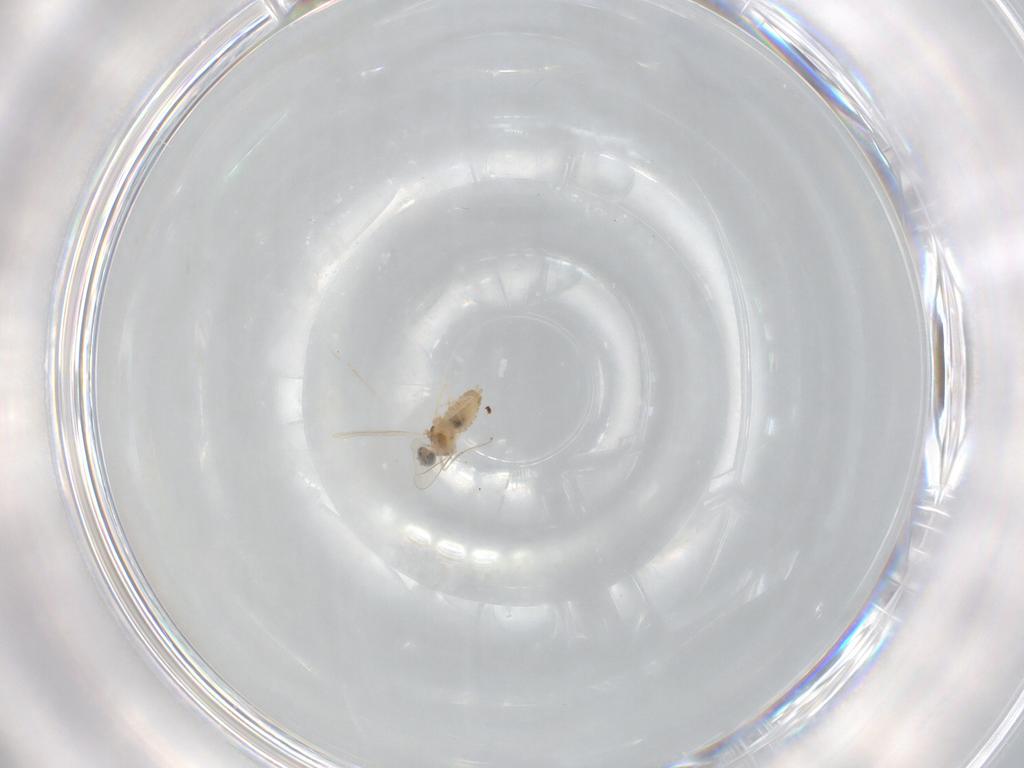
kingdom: Animalia
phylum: Arthropoda
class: Insecta
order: Diptera
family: Cecidomyiidae
